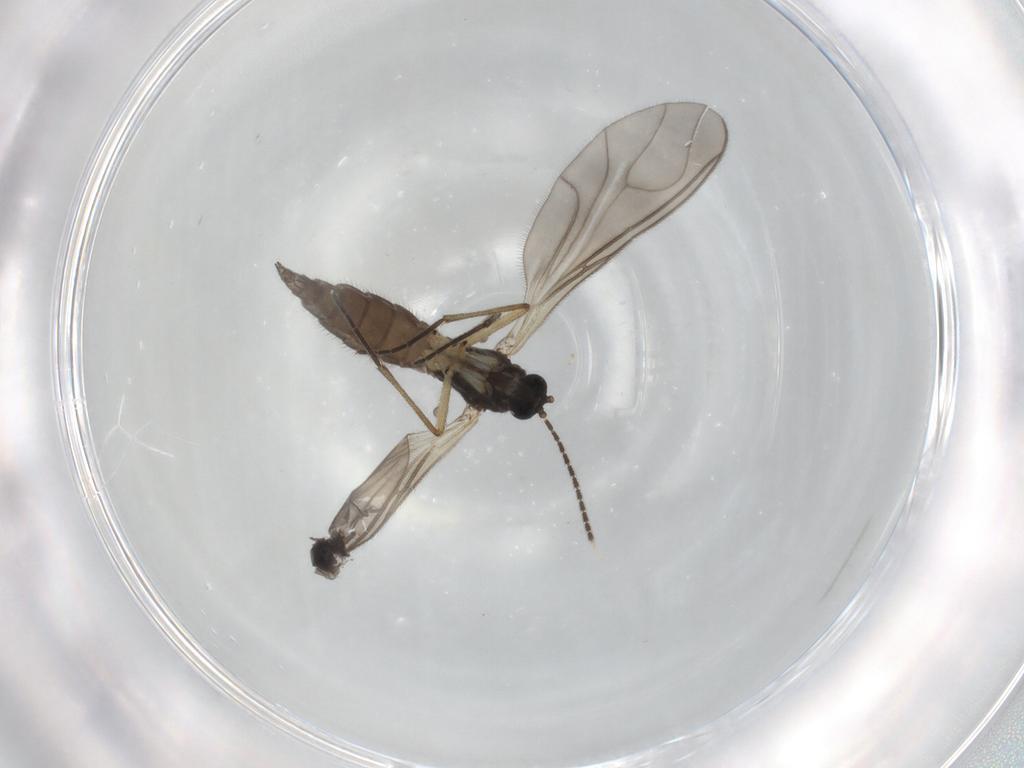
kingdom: Animalia
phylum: Arthropoda
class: Insecta
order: Diptera
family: Sciaridae
